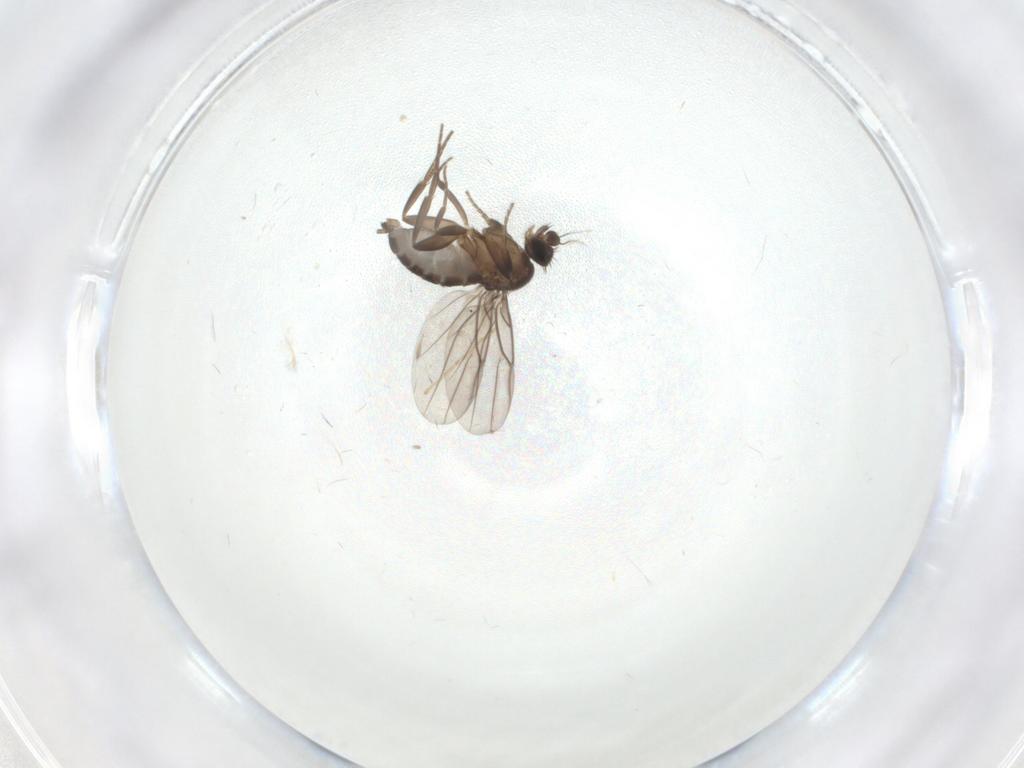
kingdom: Animalia
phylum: Arthropoda
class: Insecta
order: Diptera
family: Phoridae
